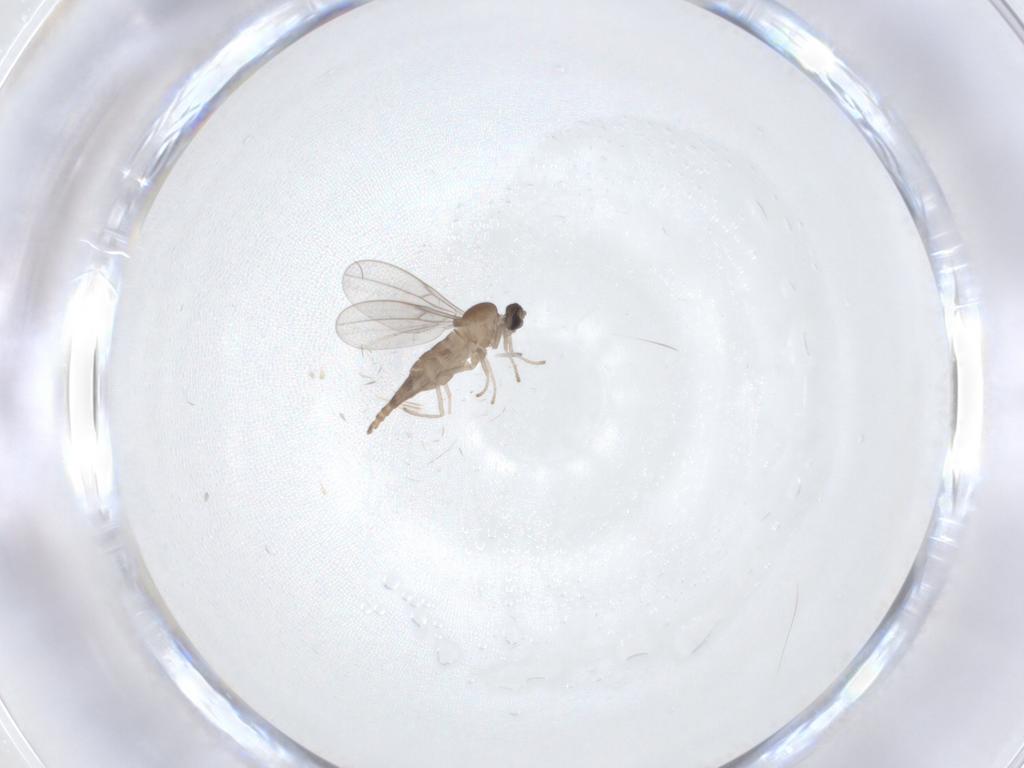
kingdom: Animalia
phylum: Arthropoda
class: Insecta
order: Diptera
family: Cecidomyiidae
